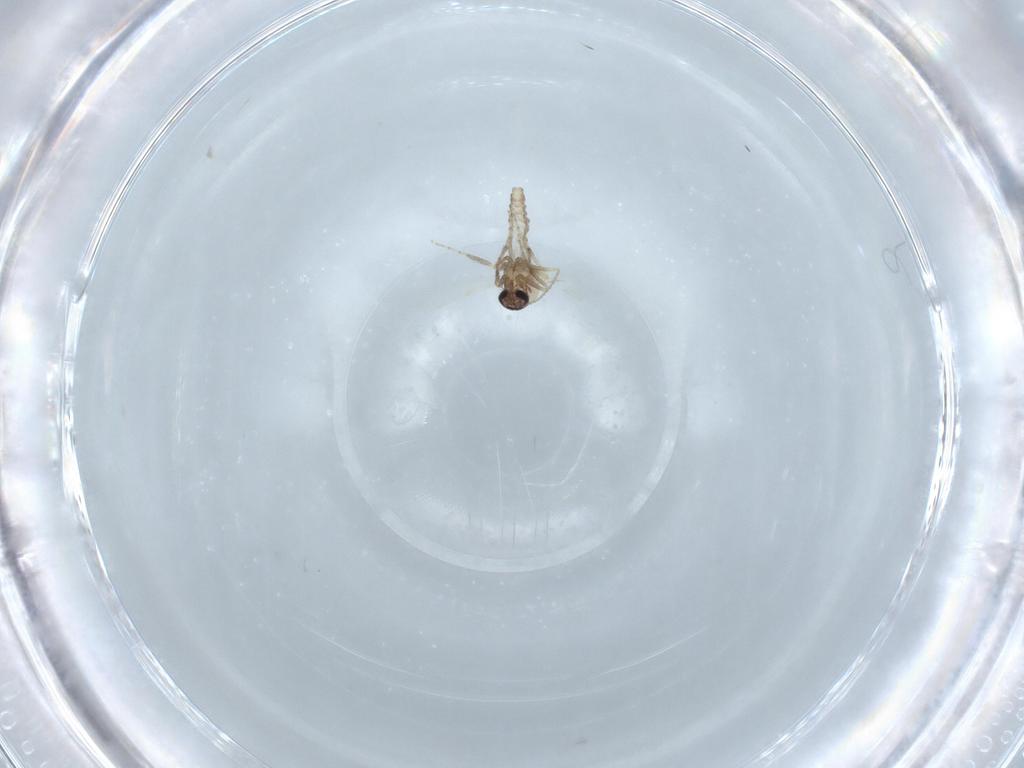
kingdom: Animalia
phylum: Arthropoda
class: Insecta
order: Diptera
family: Ceratopogonidae
